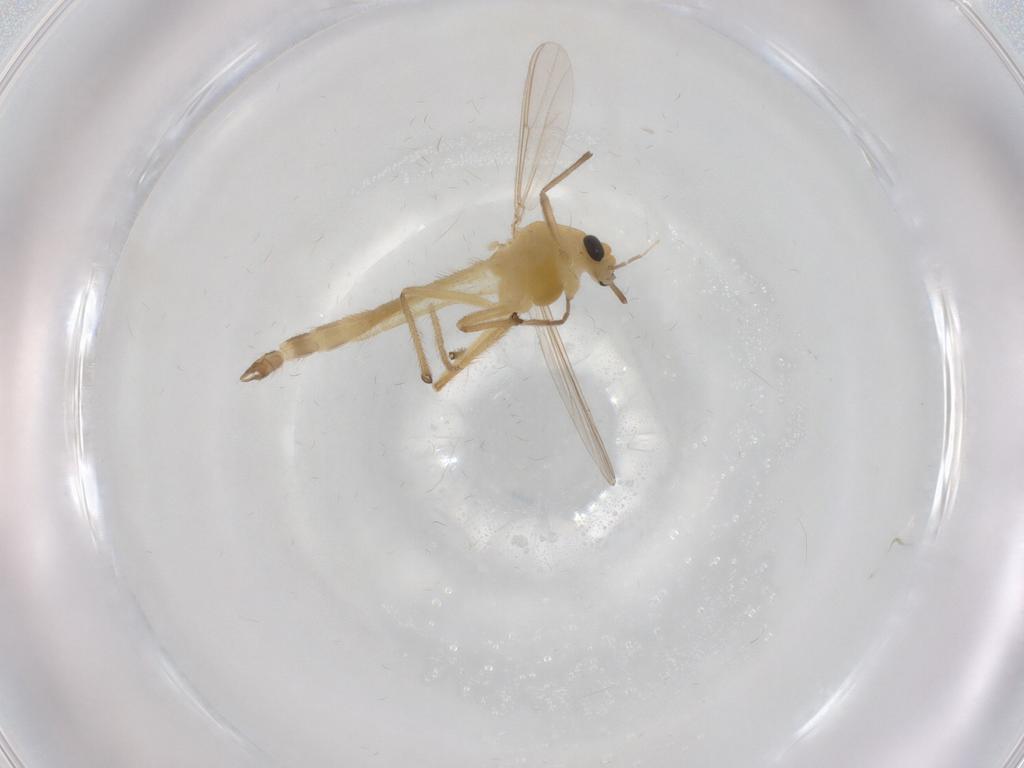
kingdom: Animalia
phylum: Arthropoda
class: Insecta
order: Diptera
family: Chironomidae
